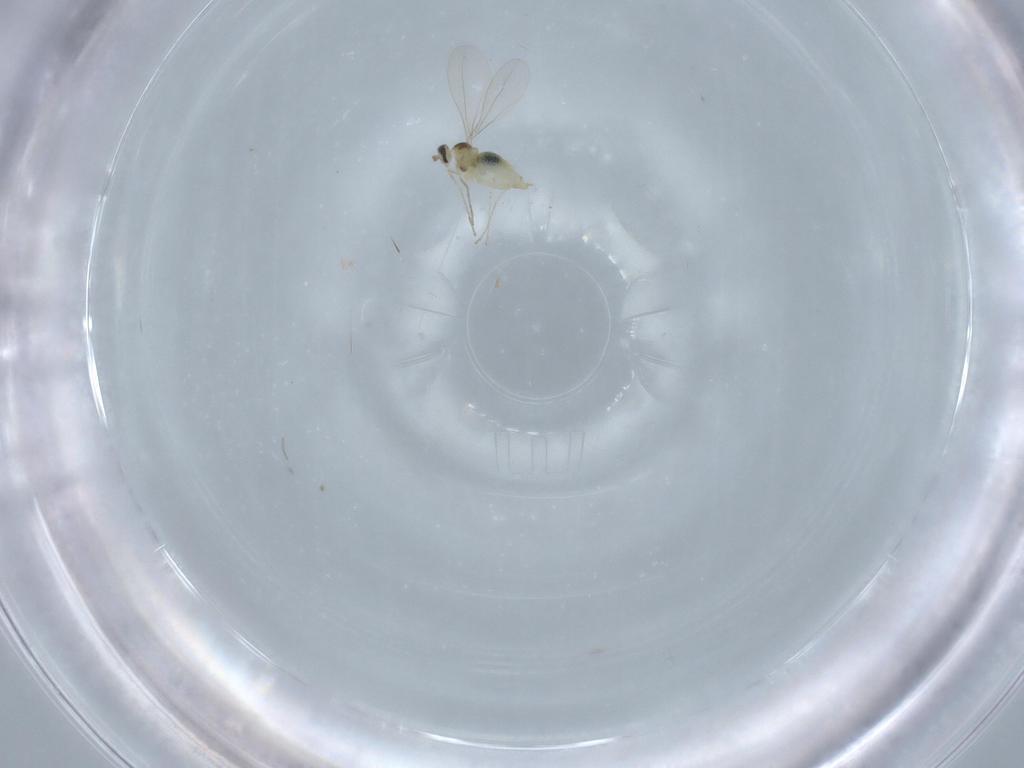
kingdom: Animalia
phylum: Arthropoda
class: Insecta
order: Diptera
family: Cecidomyiidae
